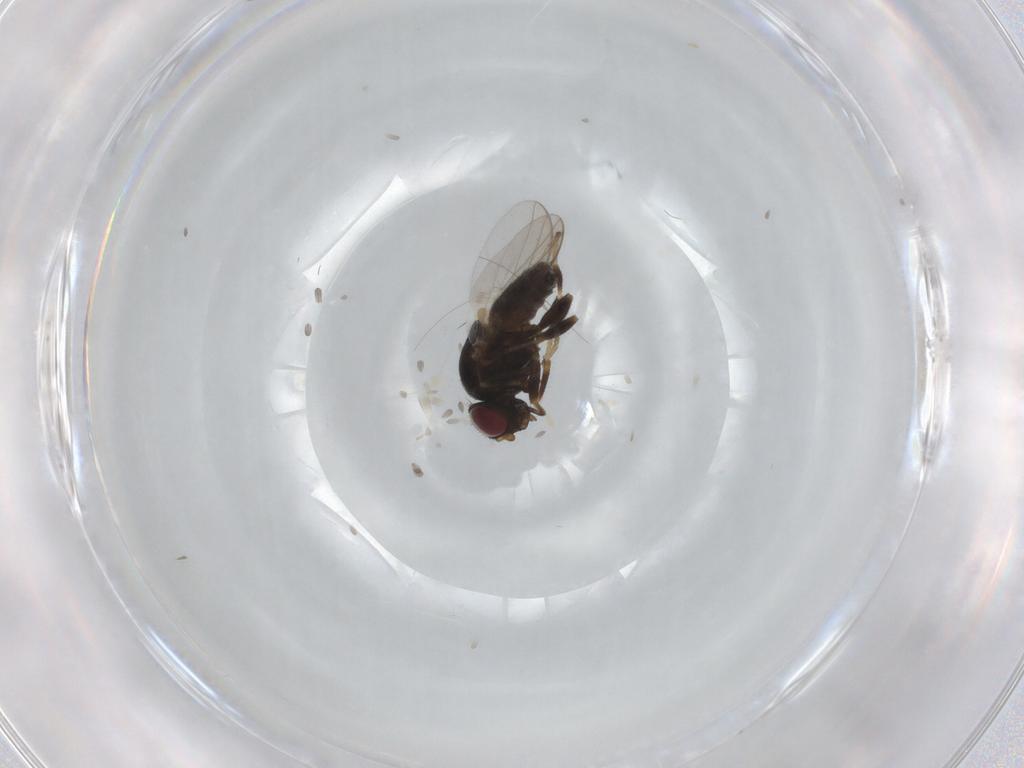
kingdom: Animalia
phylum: Arthropoda
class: Insecta
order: Diptera
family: Chloropidae
